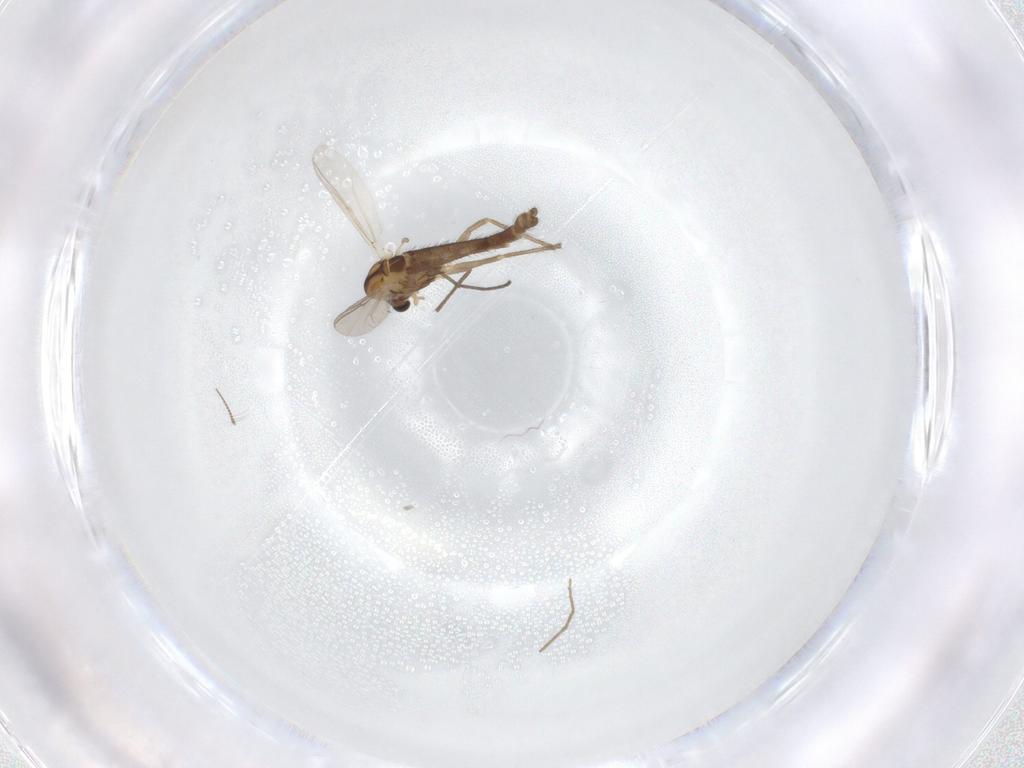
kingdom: Animalia
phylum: Arthropoda
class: Insecta
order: Diptera
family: Chironomidae
